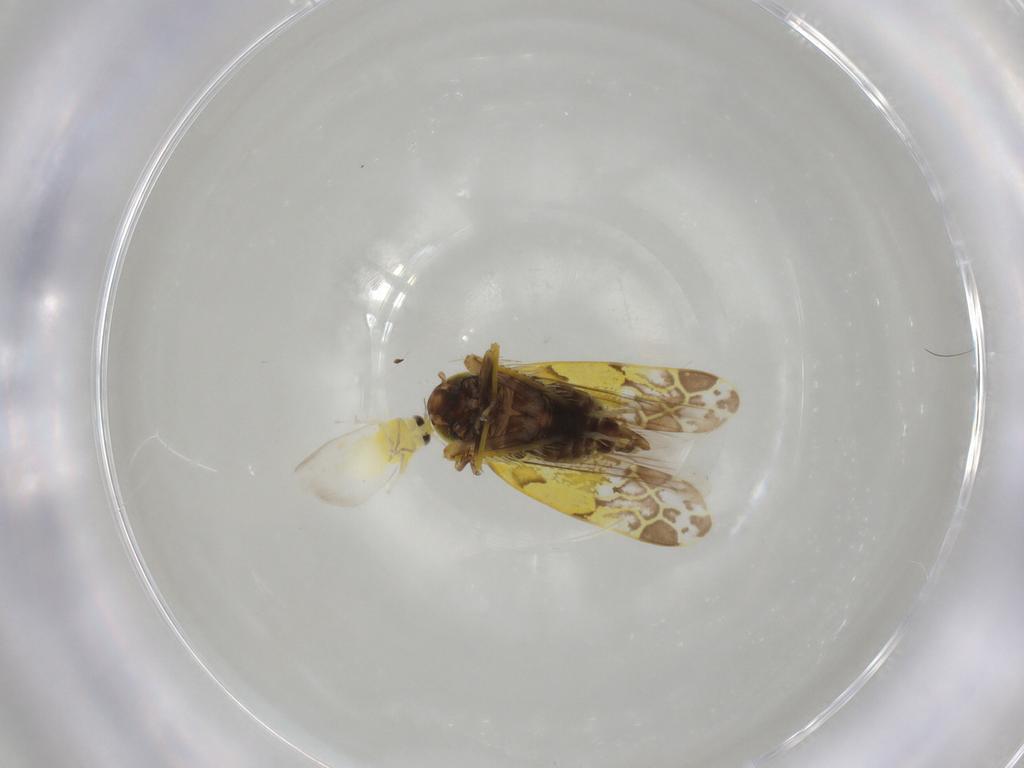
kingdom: Animalia
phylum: Arthropoda
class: Insecta
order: Hemiptera
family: Cicadellidae
